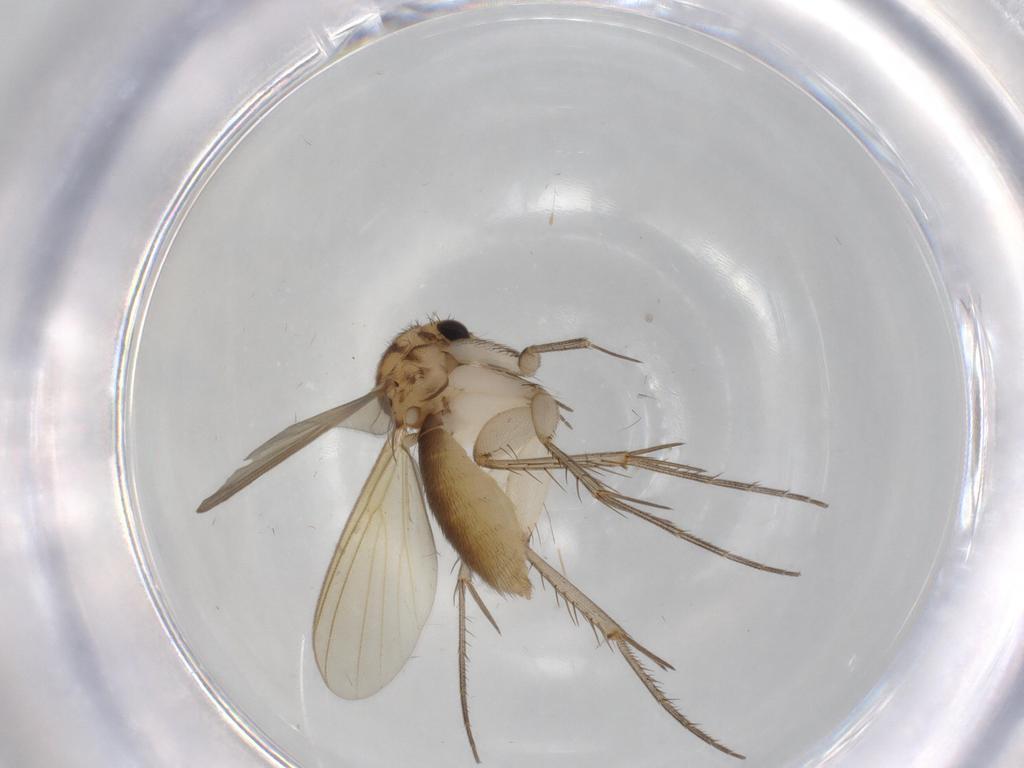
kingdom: Animalia
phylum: Arthropoda
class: Insecta
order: Diptera
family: Mycetophilidae
